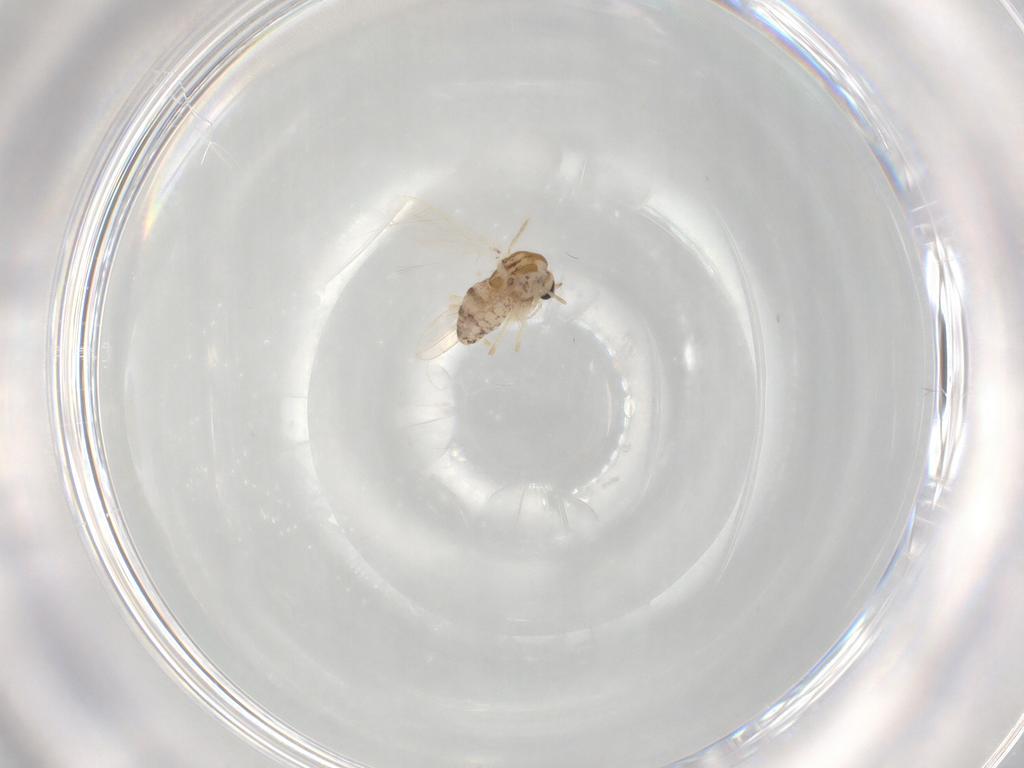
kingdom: Animalia
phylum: Arthropoda
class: Insecta
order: Diptera
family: Chironomidae
